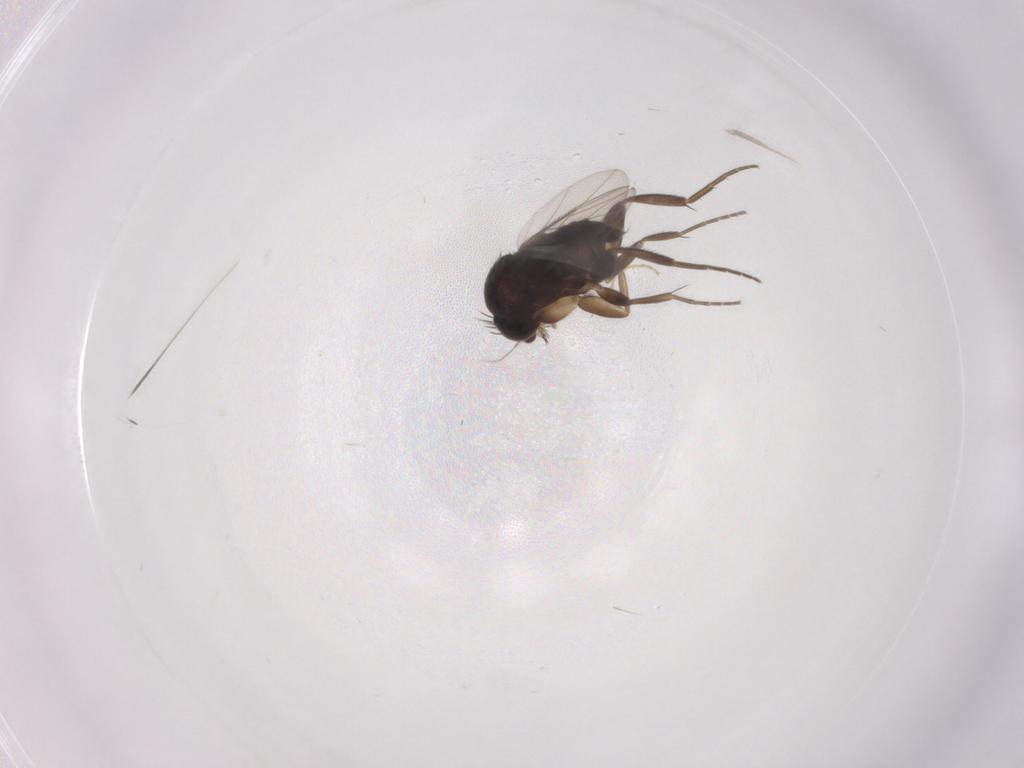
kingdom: Animalia
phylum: Arthropoda
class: Insecta
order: Diptera
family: Phoridae
